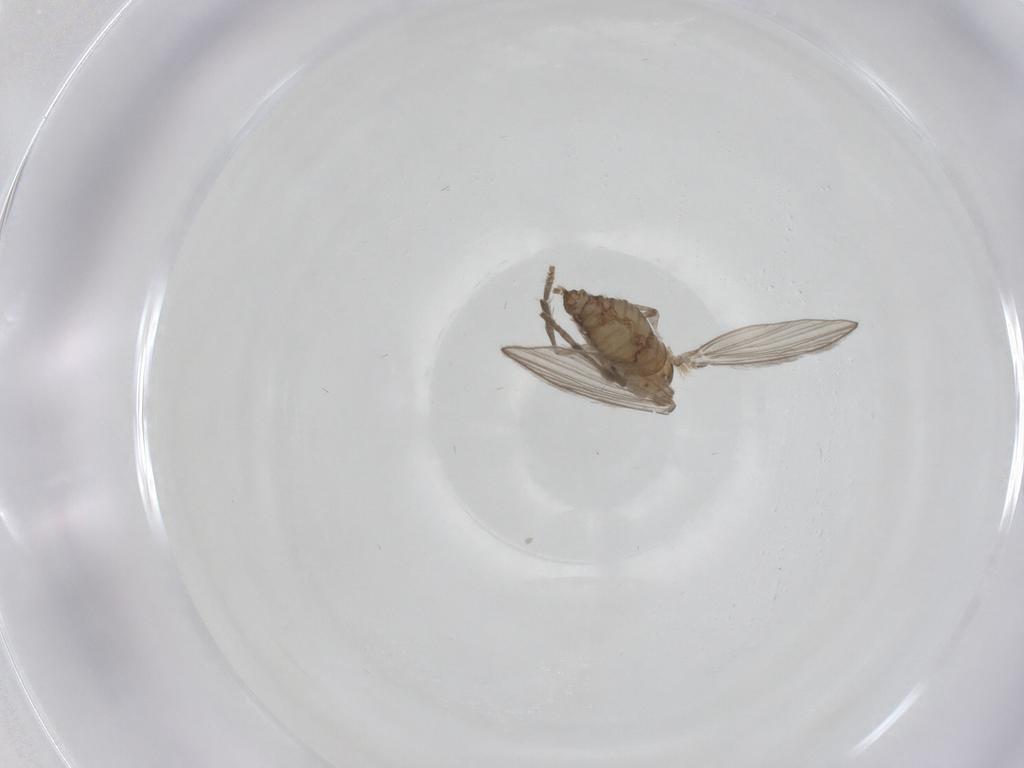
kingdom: Animalia
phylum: Arthropoda
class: Insecta
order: Diptera
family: Psychodidae
